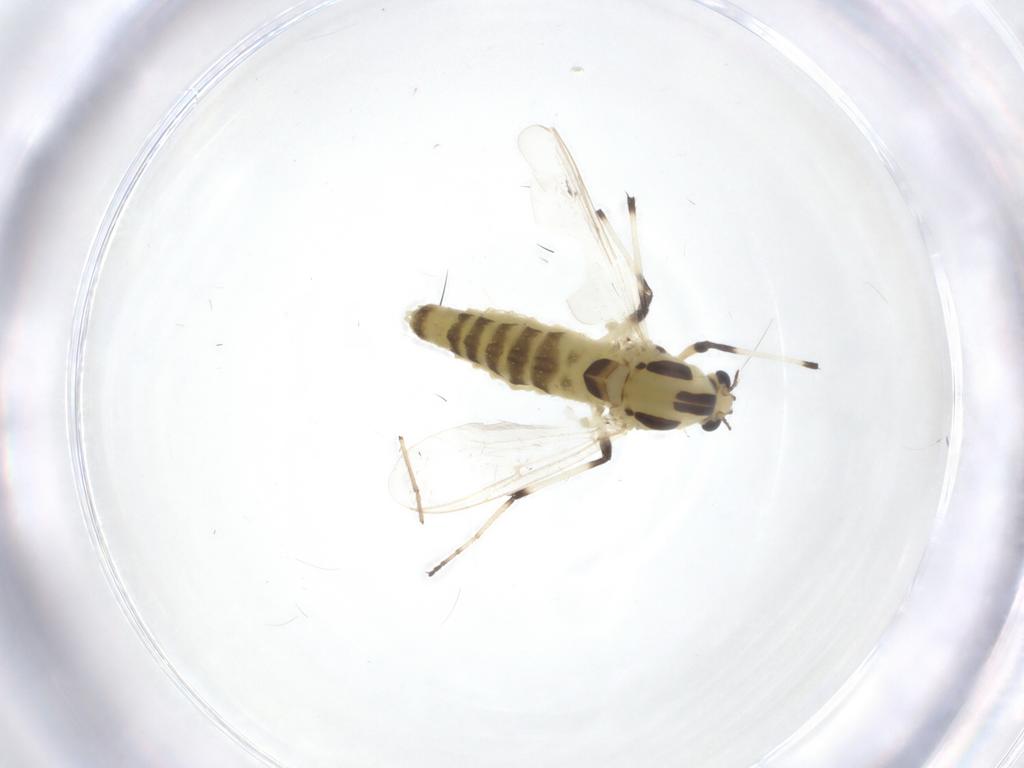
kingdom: Animalia
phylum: Arthropoda
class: Insecta
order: Diptera
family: Chironomidae
